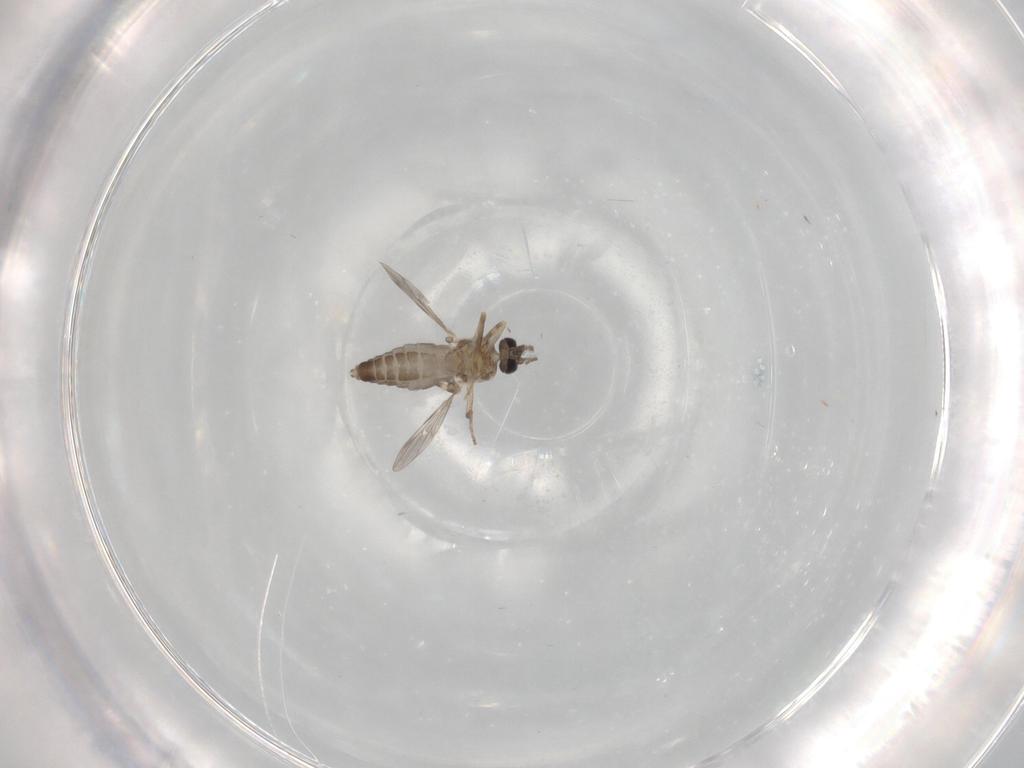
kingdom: Animalia
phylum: Arthropoda
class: Insecta
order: Diptera
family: Ceratopogonidae
